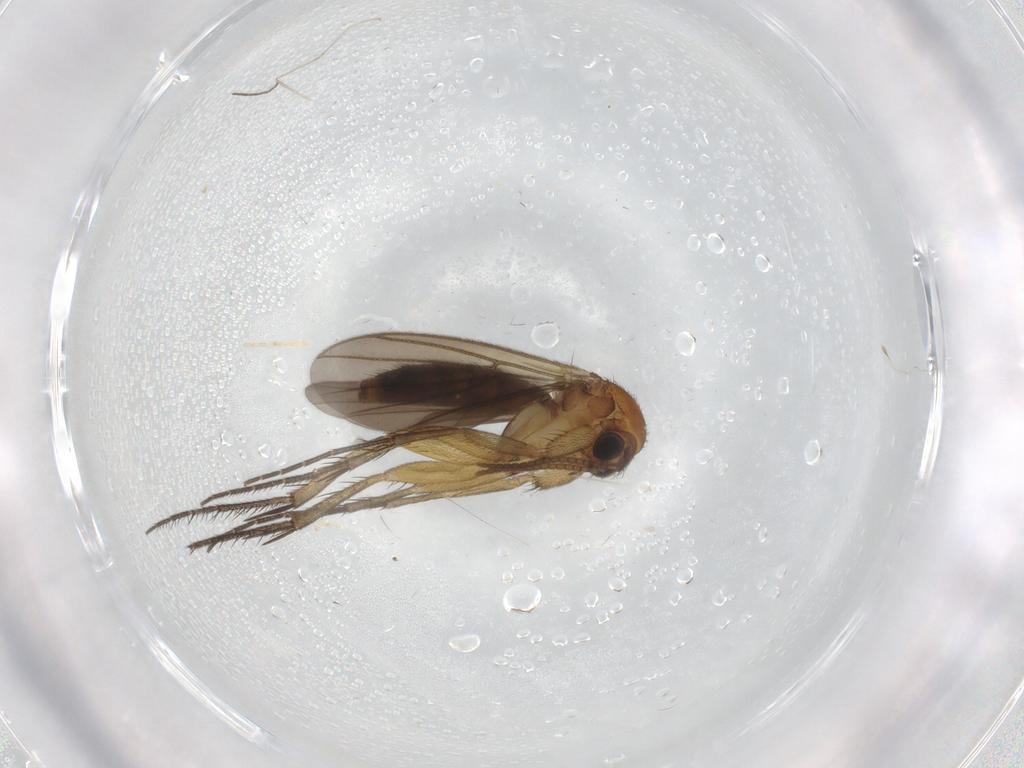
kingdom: Animalia
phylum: Arthropoda
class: Insecta
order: Diptera
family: Cecidomyiidae
